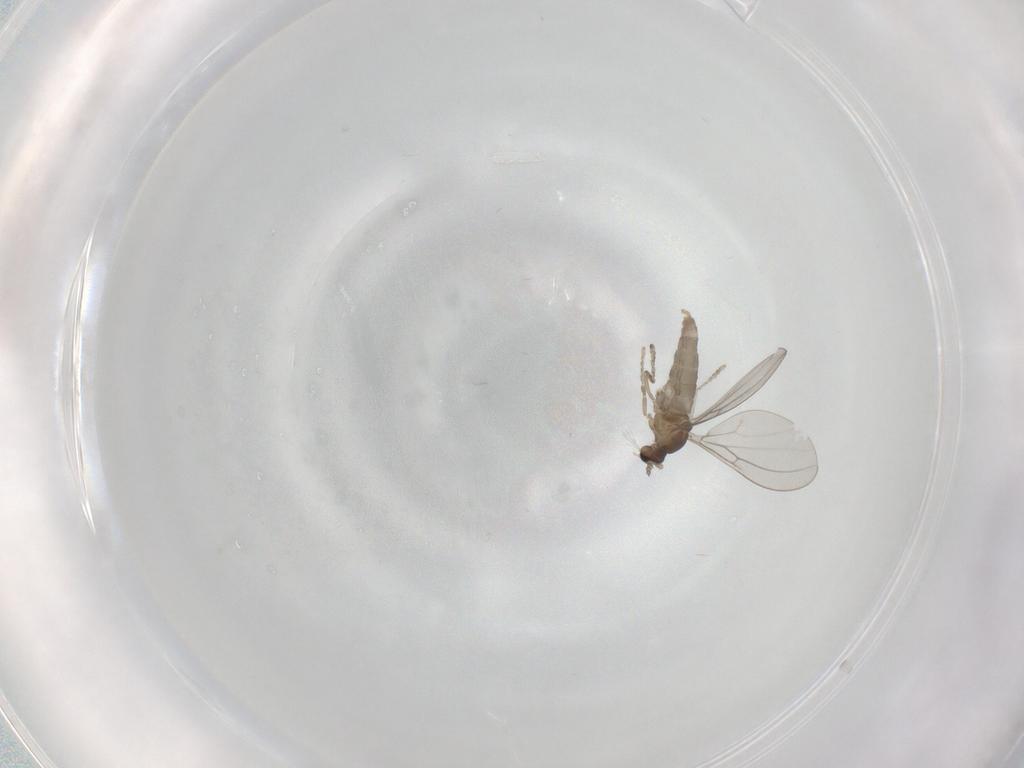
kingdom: Animalia
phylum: Arthropoda
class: Insecta
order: Diptera
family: Cecidomyiidae
